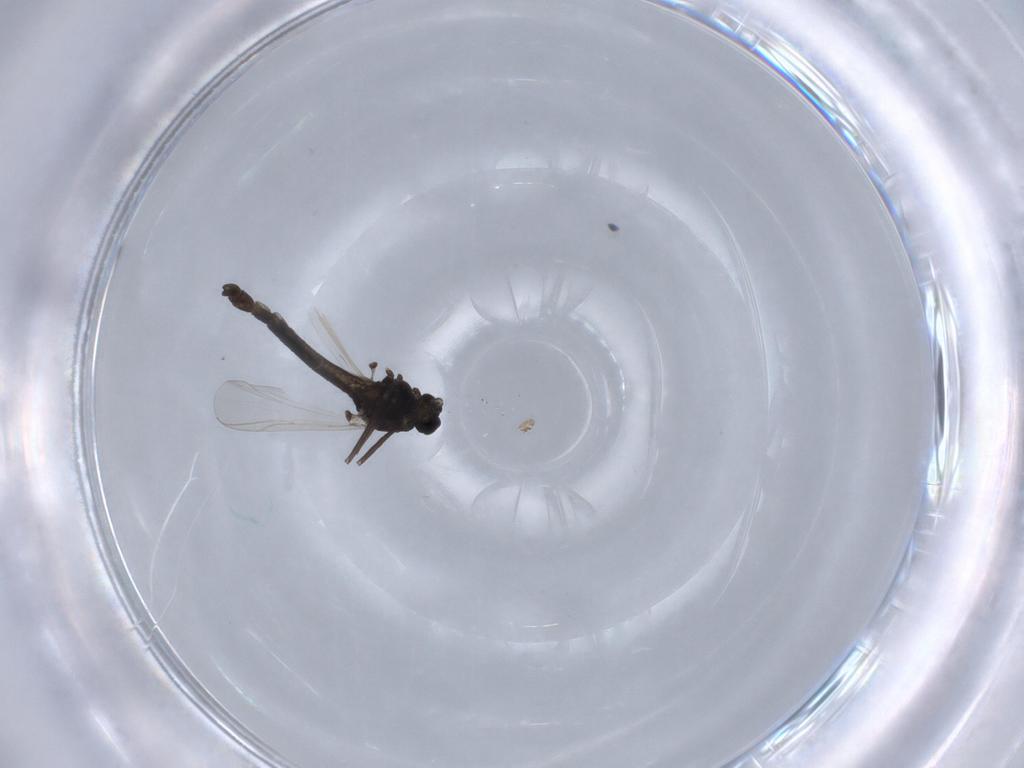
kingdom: Animalia
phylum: Arthropoda
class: Insecta
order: Diptera
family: Chironomidae
